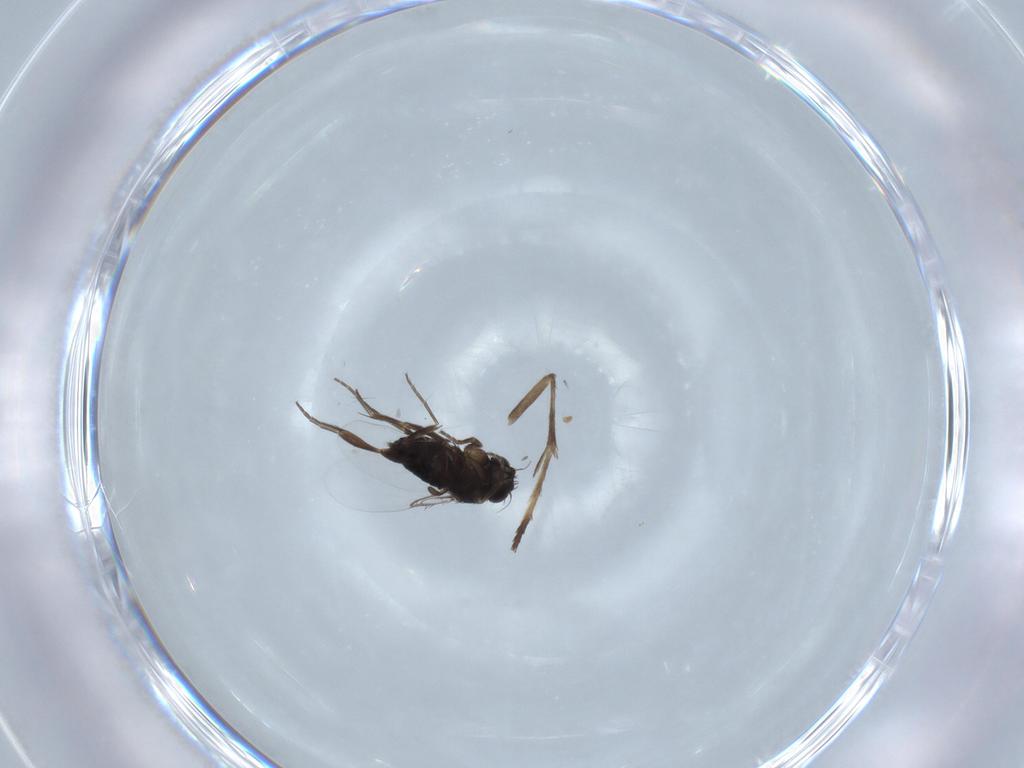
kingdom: Animalia
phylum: Arthropoda
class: Insecta
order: Diptera
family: Phoridae
